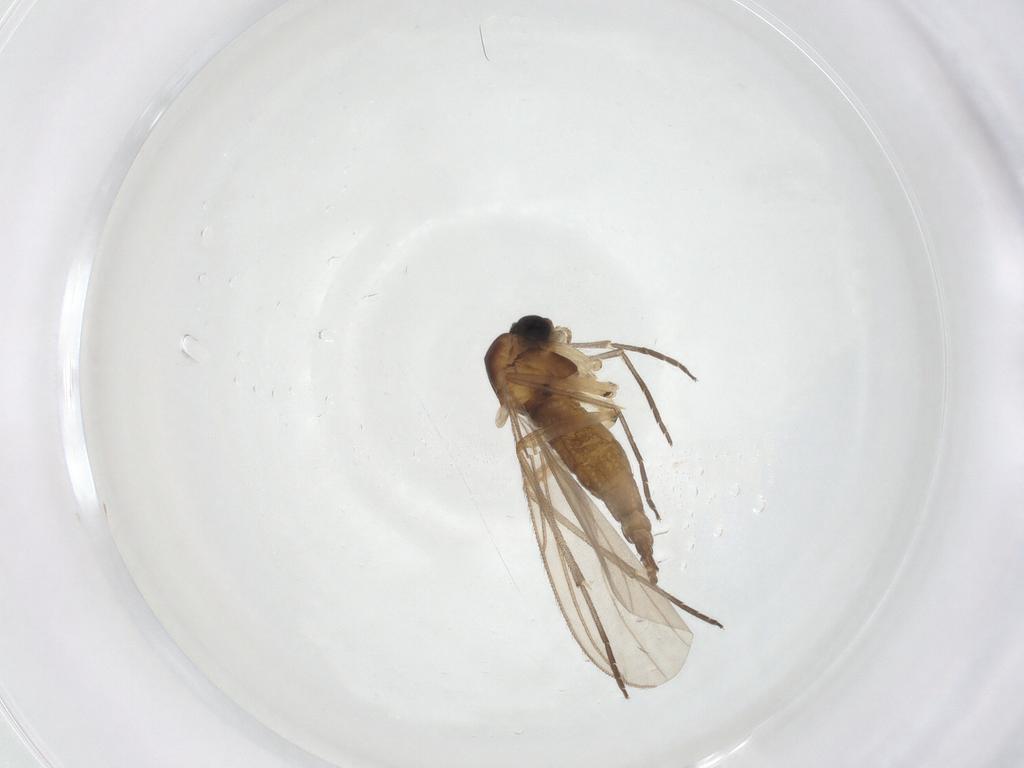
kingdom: Animalia
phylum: Arthropoda
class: Insecta
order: Diptera
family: Sciaridae
